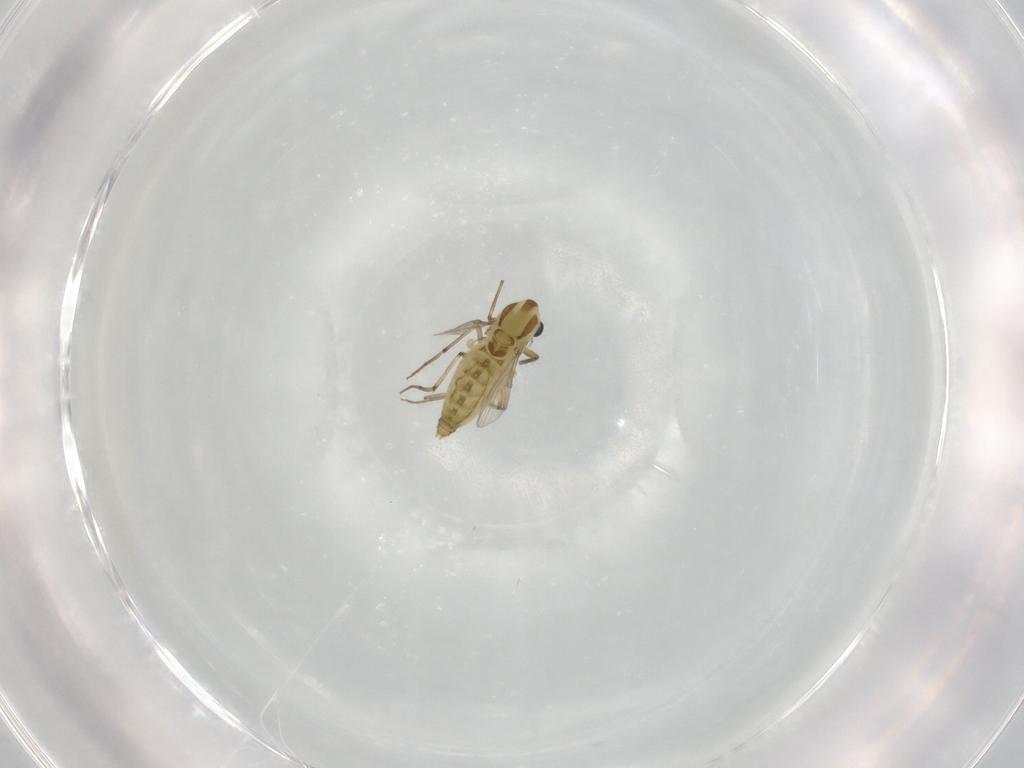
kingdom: Animalia
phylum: Arthropoda
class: Insecta
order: Diptera
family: Chironomidae
